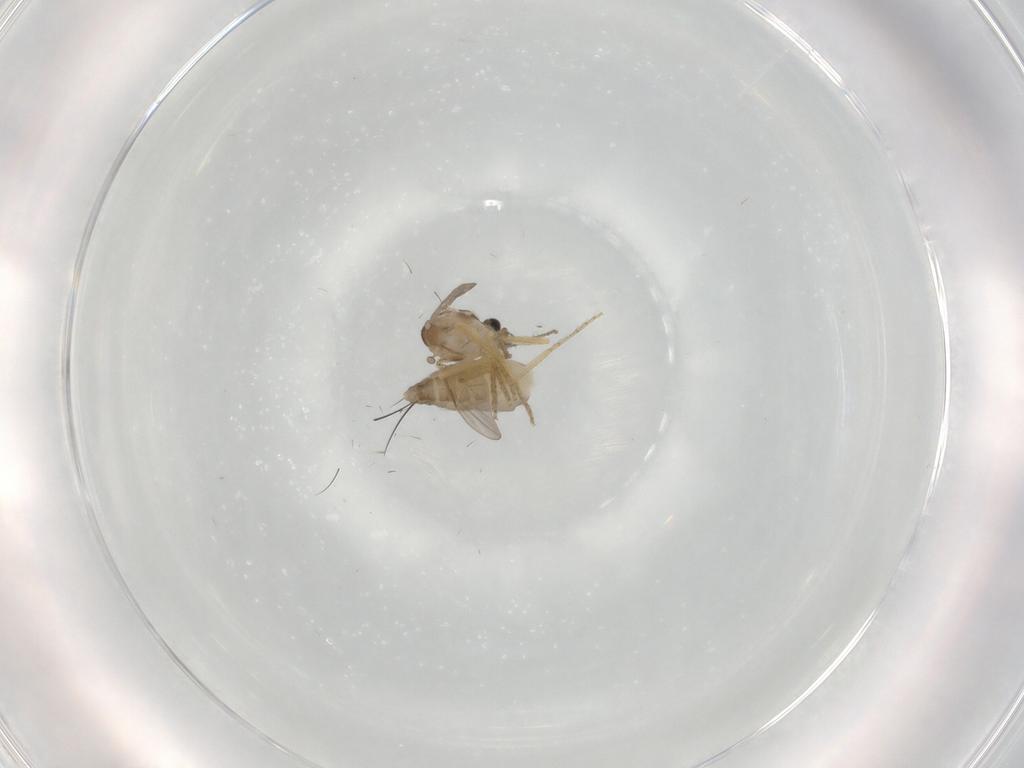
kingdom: Animalia
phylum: Arthropoda
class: Insecta
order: Diptera
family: Ceratopogonidae
